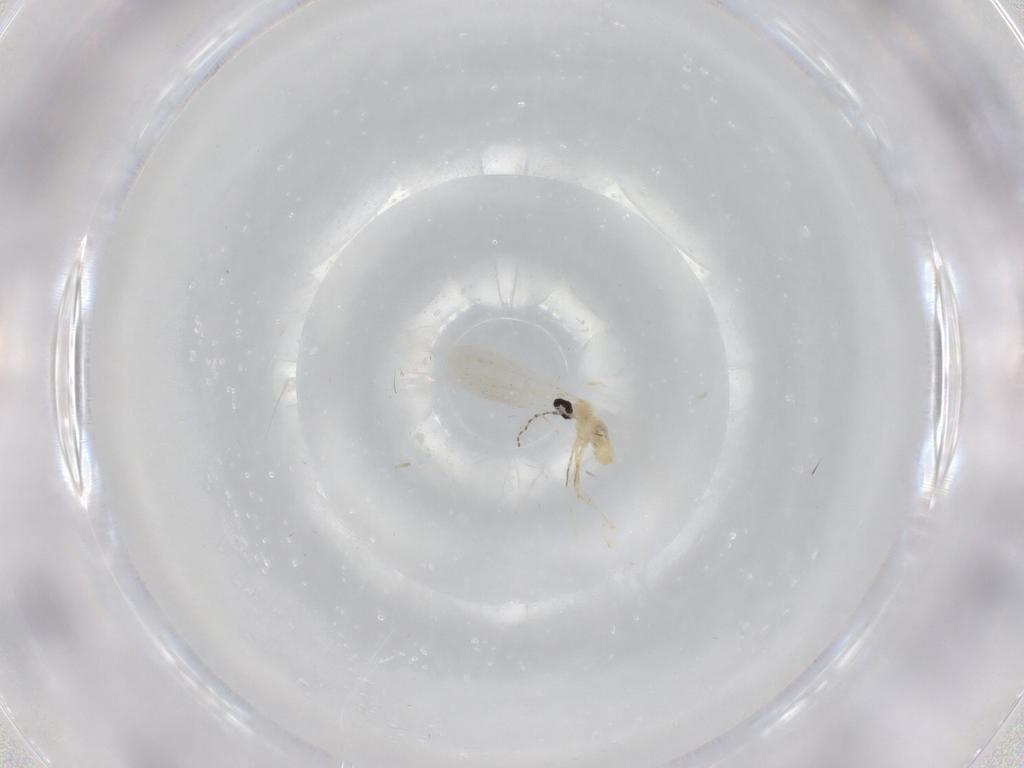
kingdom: Animalia
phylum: Arthropoda
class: Insecta
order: Diptera
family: Cecidomyiidae
